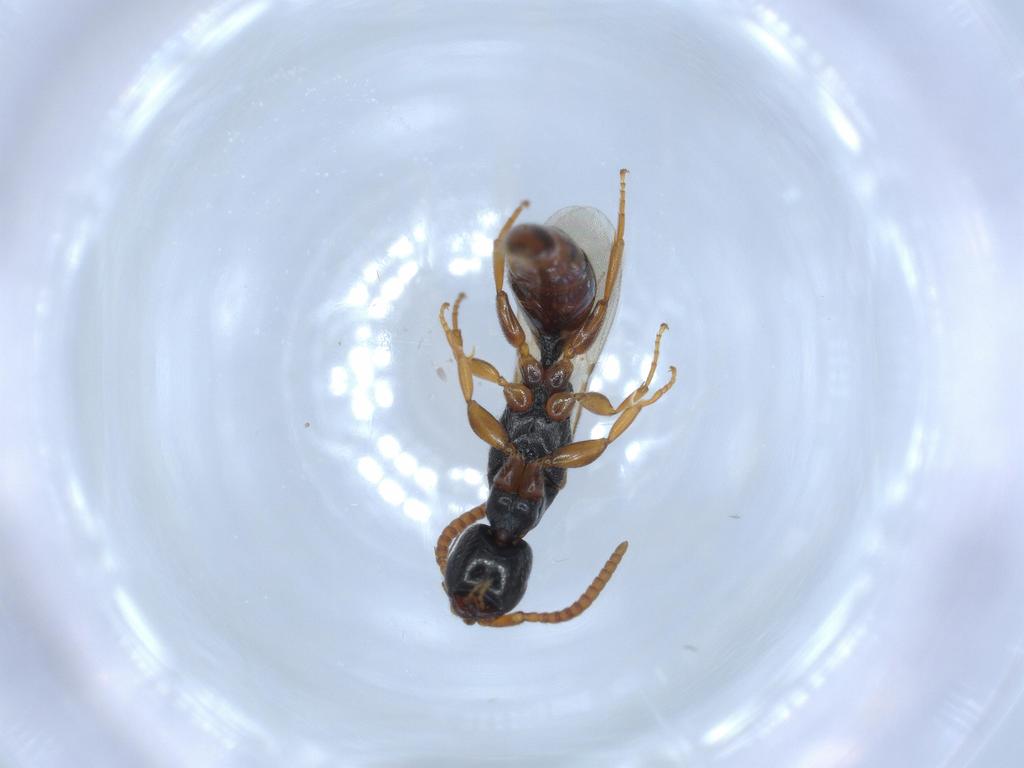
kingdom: Animalia
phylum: Arthropoda
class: Insecta
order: Hymenoptera
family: Bethylidae
